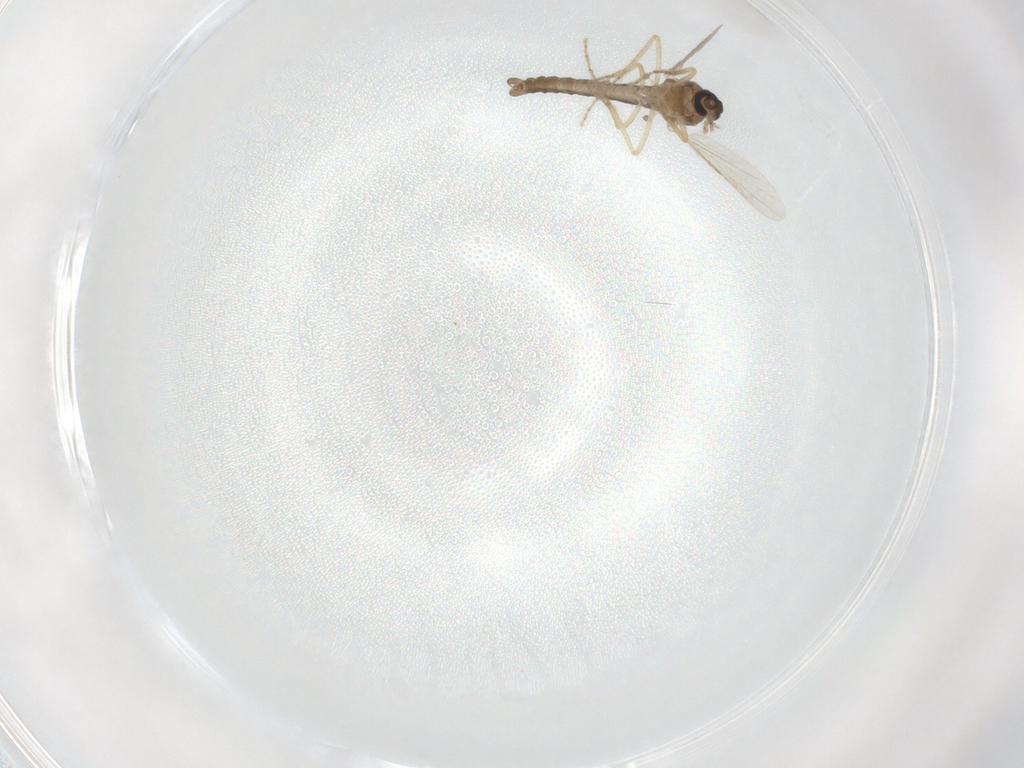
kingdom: Animalia
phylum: Arthropoda
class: Insecta
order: Diptera
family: Ceratopogonidae
